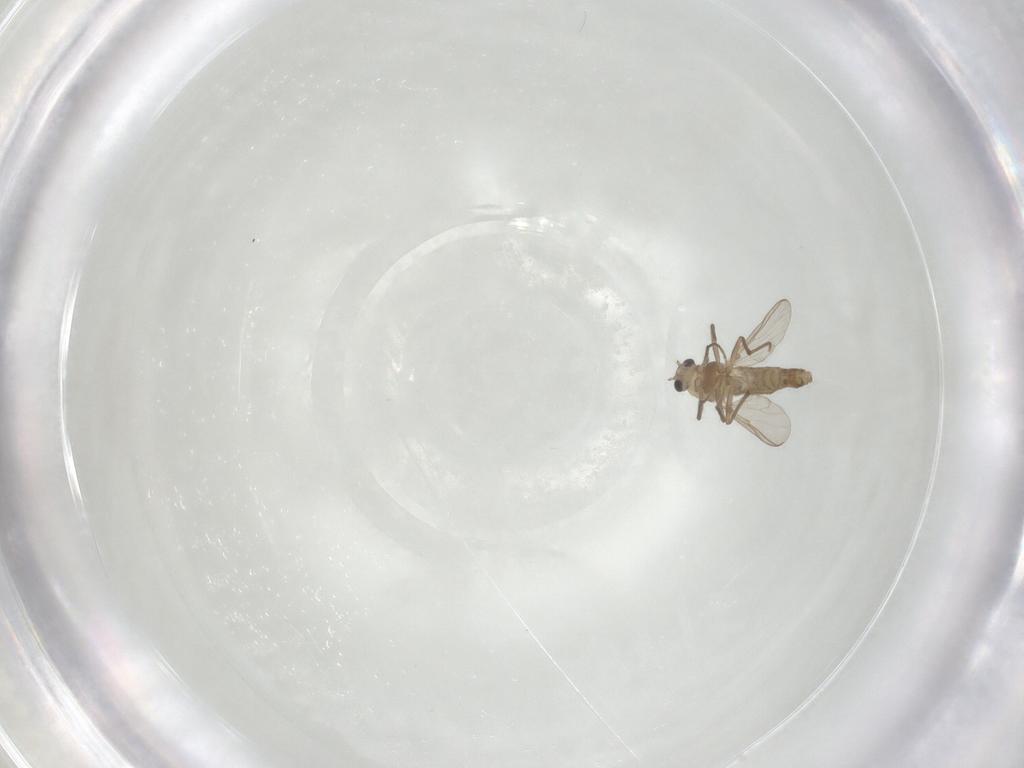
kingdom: Animalia
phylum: Arthropoda
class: Insecta
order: Diptera
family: Chironomidae
